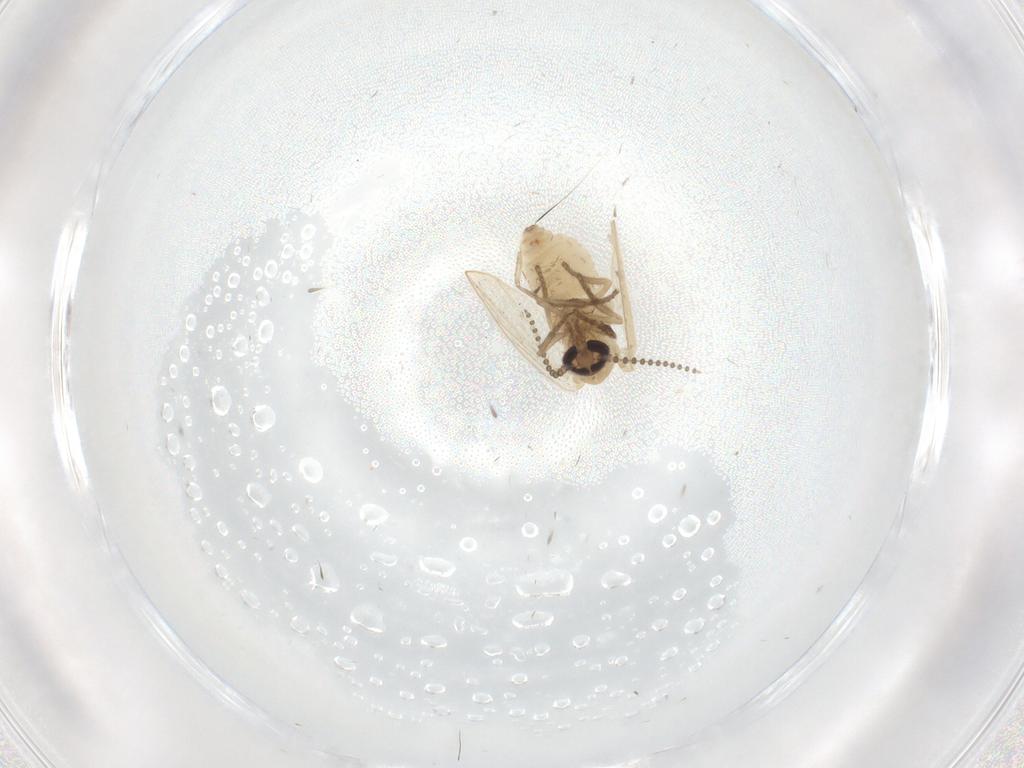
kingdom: Animalia
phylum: Arthropoda
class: Insecta
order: Diptera
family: Psychodidae
